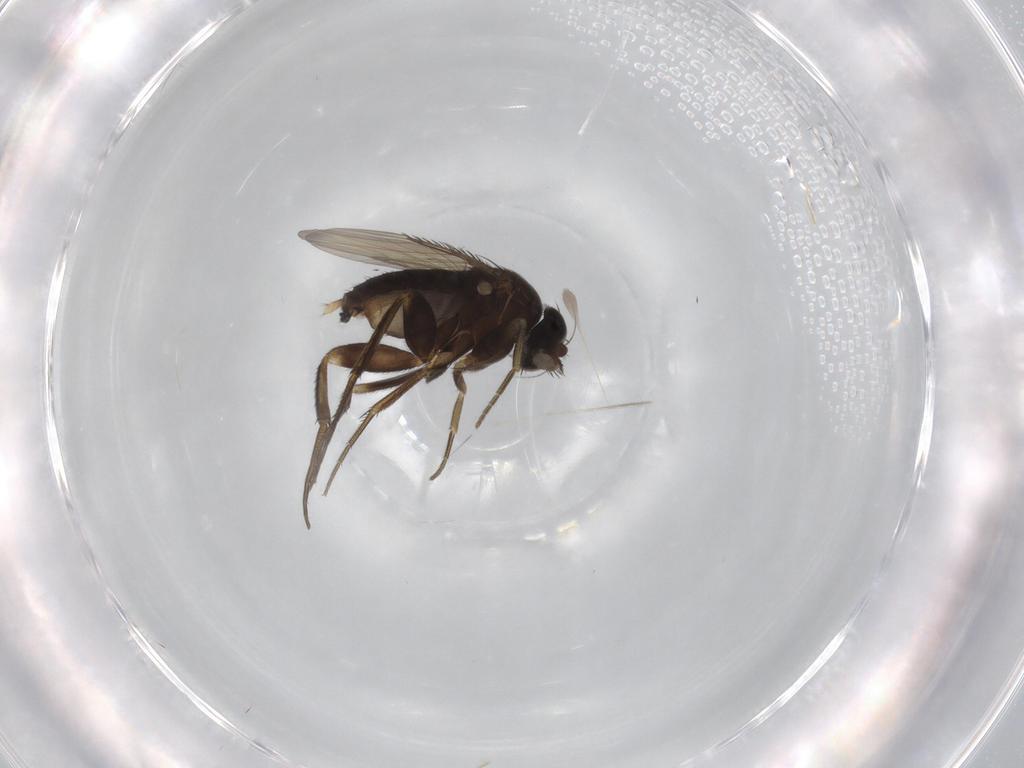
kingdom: Animalia
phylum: Arthropoda
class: Insecta
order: Diptera
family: Phoridae
